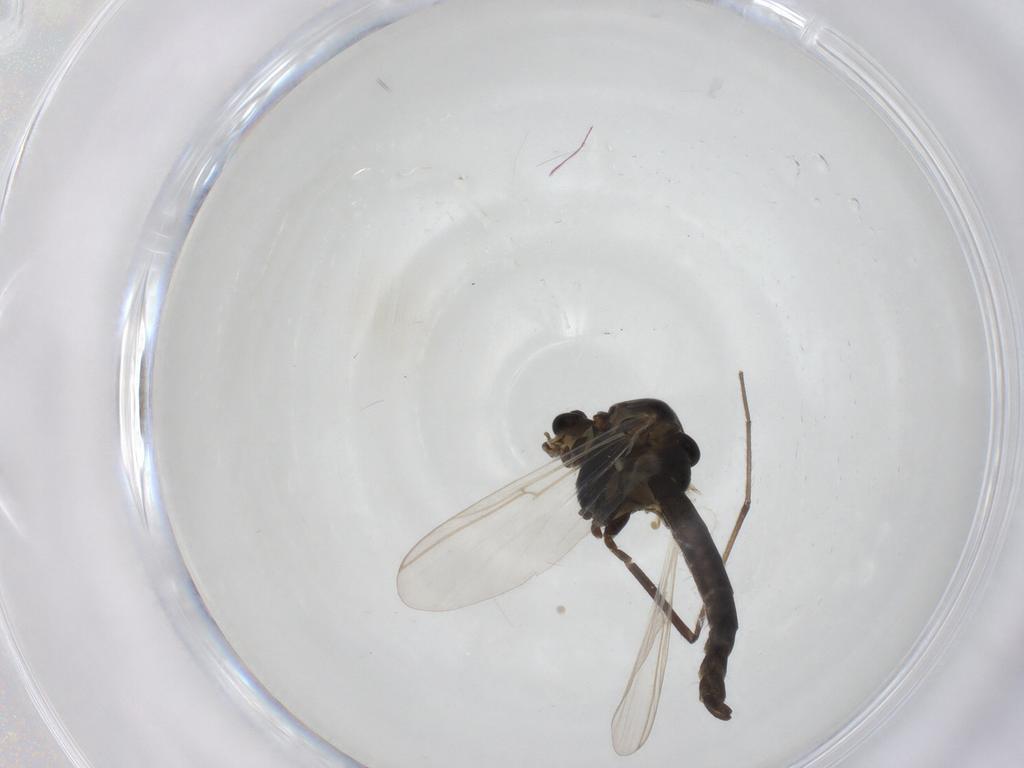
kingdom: Animalia
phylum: Arthropoda
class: Insecta
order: Diptera
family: Chironomidae
